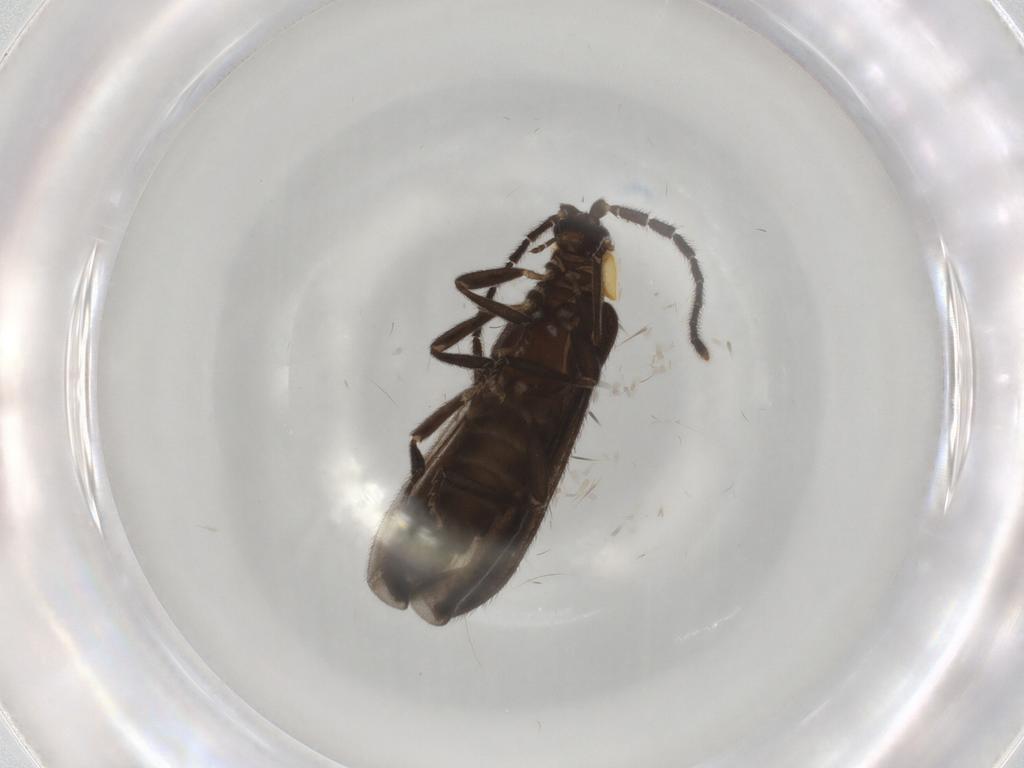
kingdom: Animalia
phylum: Arthropoda
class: Insecta
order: Coleoptera
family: Lycidae
